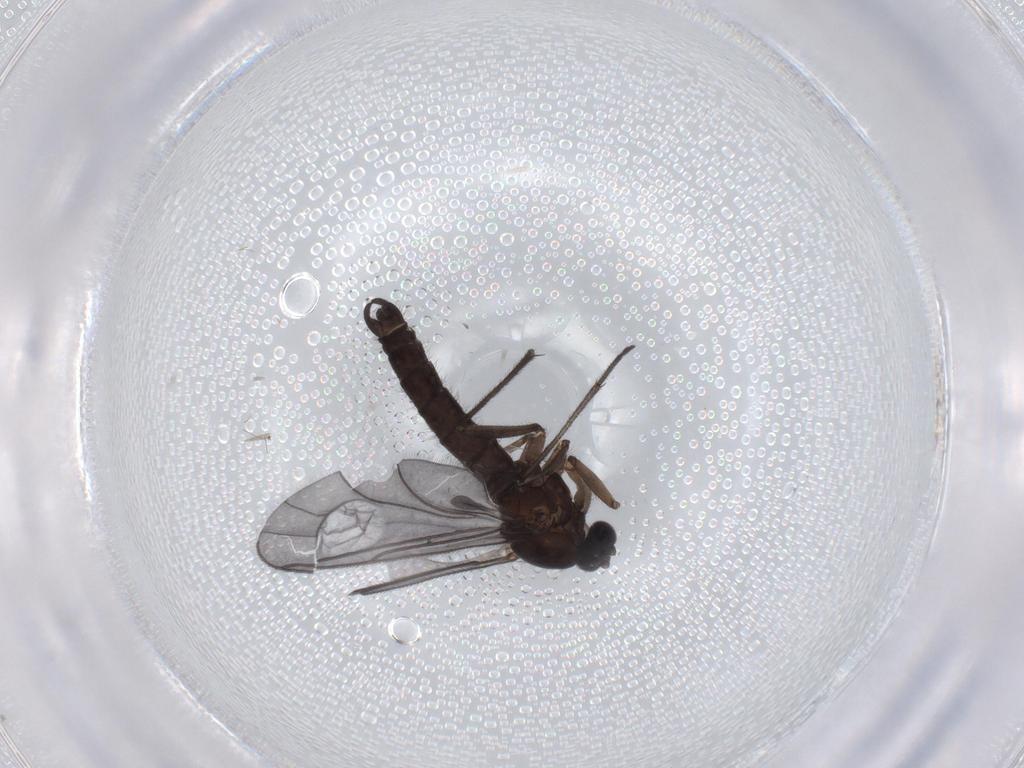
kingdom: Animalia
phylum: Arthropoda
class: Insecta
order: Diptera
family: Sciaridae
